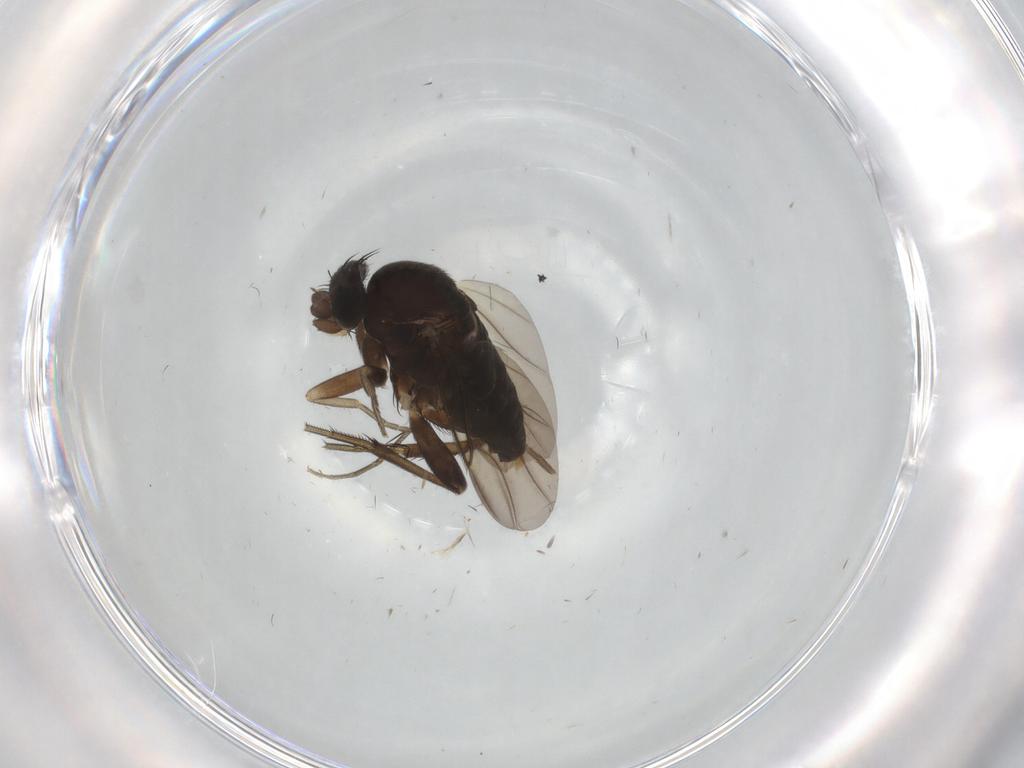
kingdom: Animalia
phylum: Arthropoda
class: Insecta
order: Diptera
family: Phoridae
